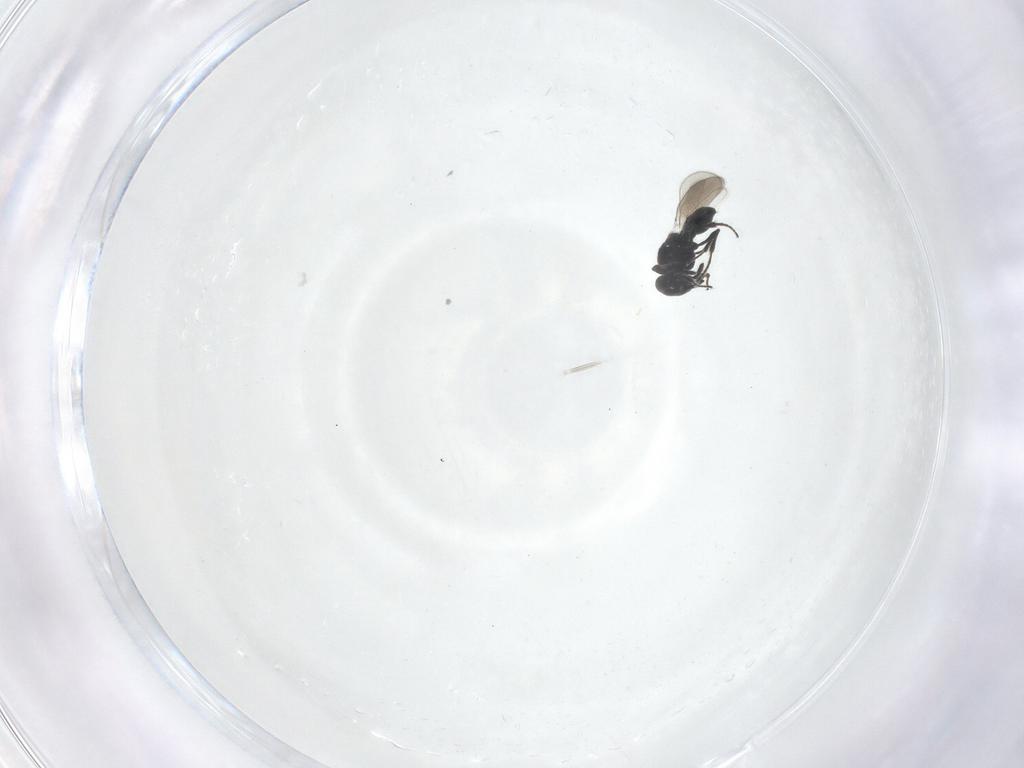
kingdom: Animalia
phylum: Arthropoda
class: Insecta
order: Hymenoptera
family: Platygastridae
